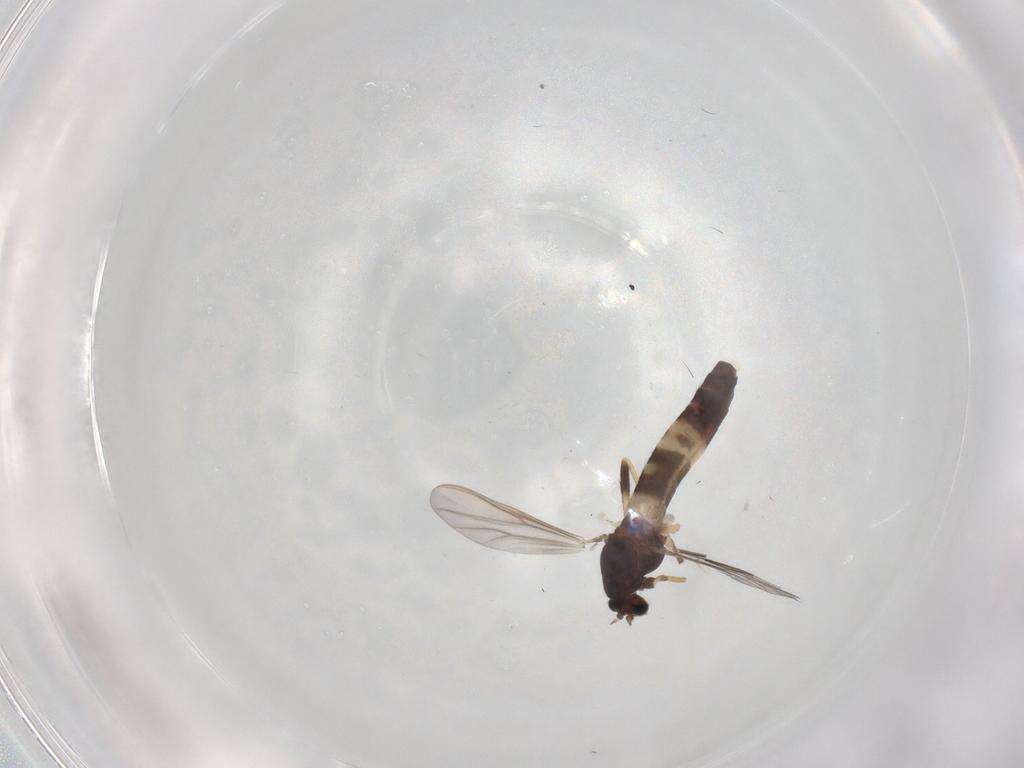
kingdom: Animalia
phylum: Arthropoda
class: Insecta
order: Diptera
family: Chironomidae
